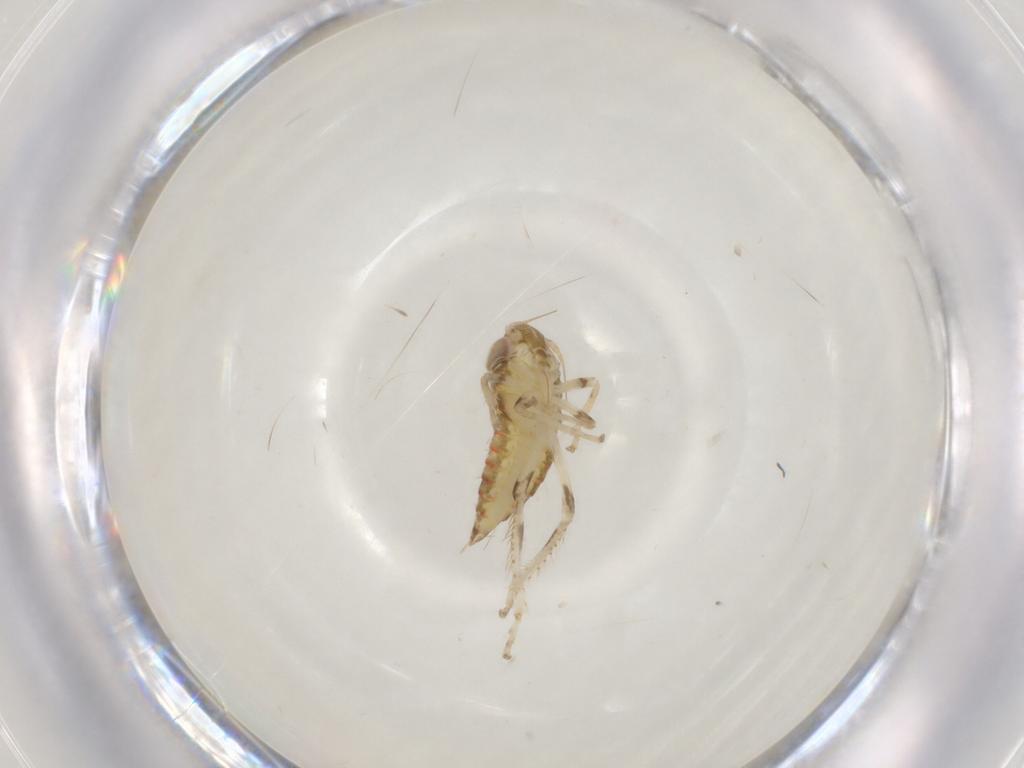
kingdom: Animalia
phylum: Arthropoda
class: Insecta
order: Hemiptera
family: Cicadellidae
